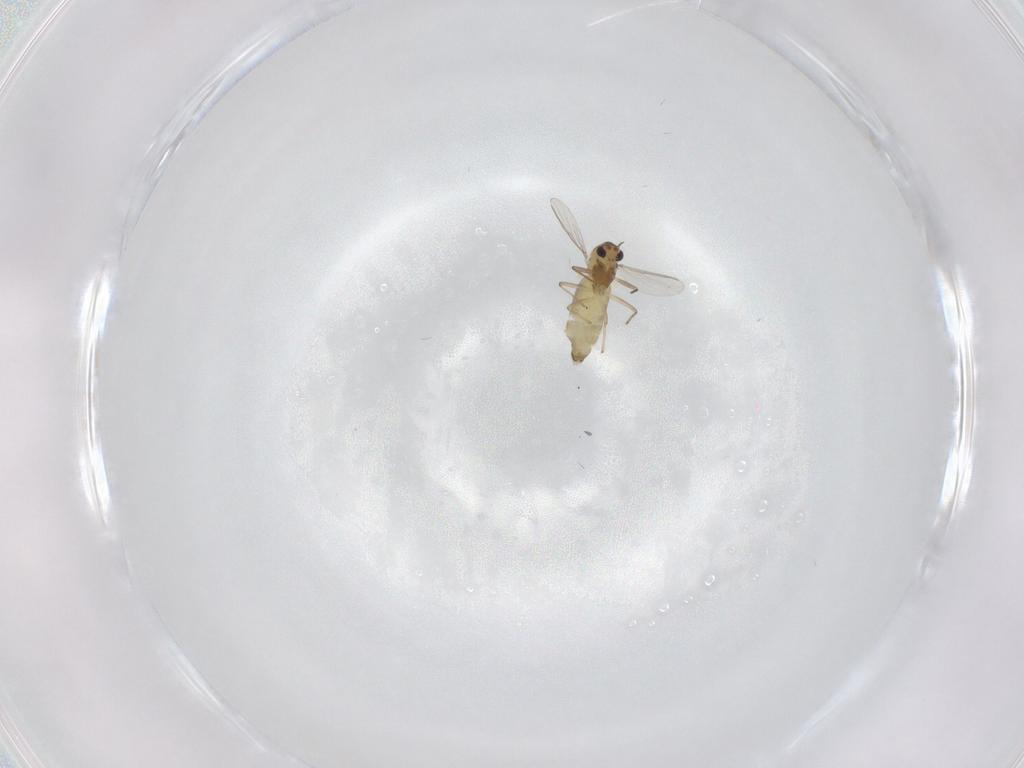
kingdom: Animalia
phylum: Arthropoda
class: Insecta
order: Diptera
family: Chironomidae
